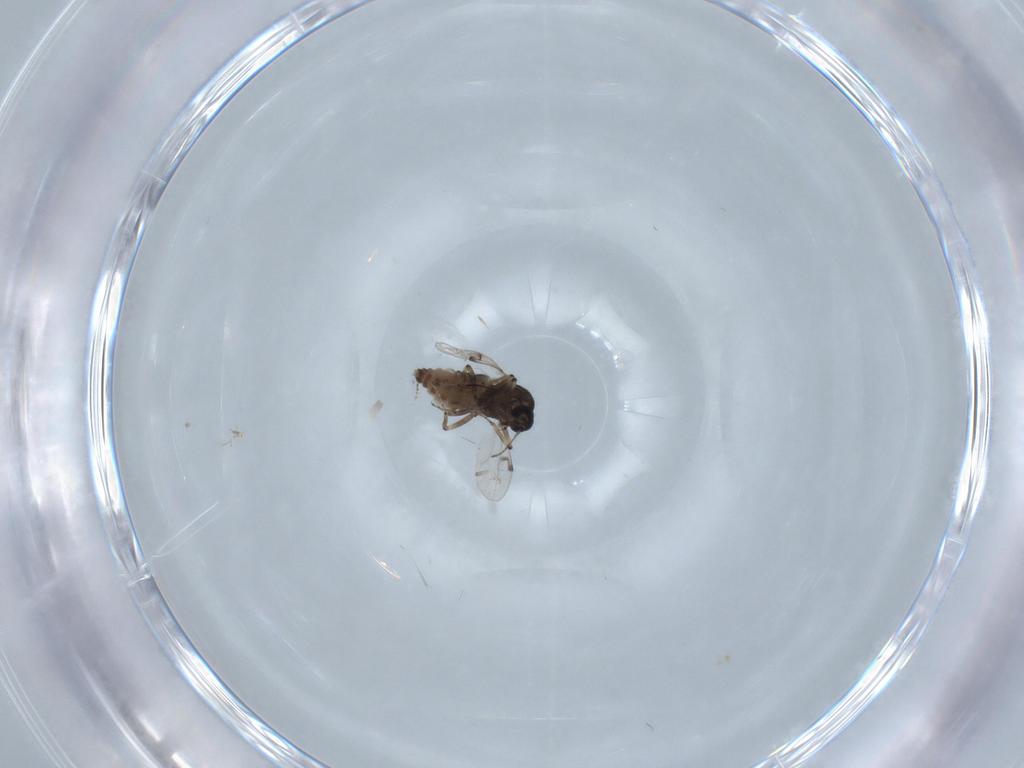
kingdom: Animalia
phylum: Arthropoda
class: Insecta
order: Diptera
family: Ceratopogonidae
